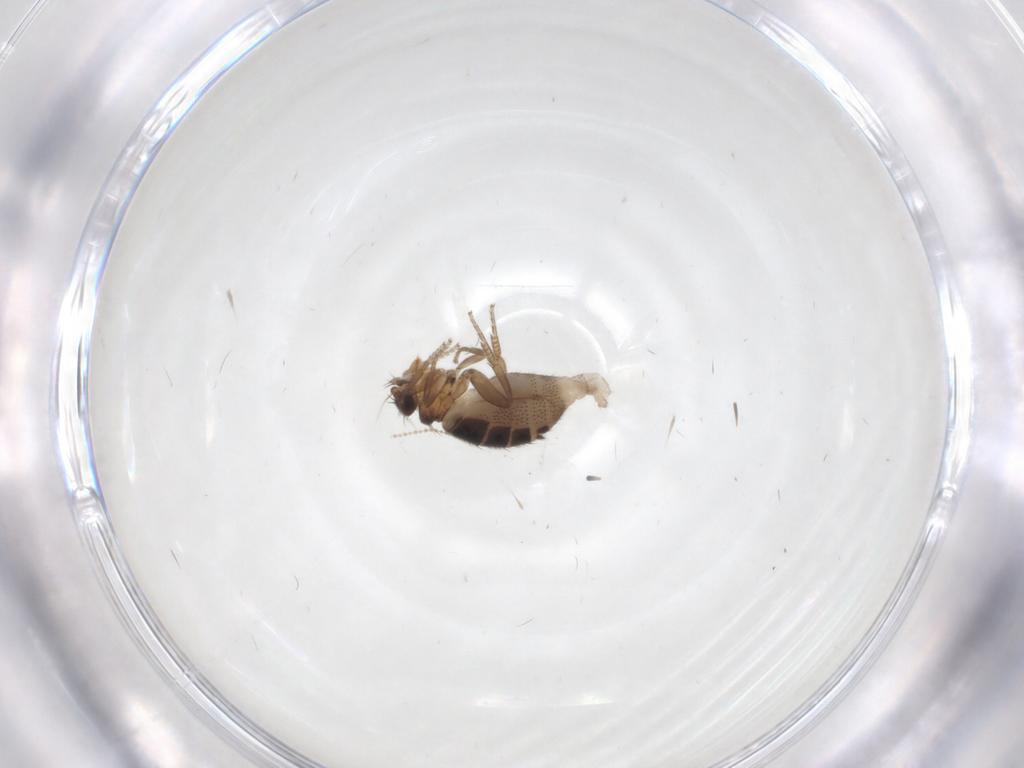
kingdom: Animalia
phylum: Arthropoda
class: Insecta
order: Diptera
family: Phoridae
